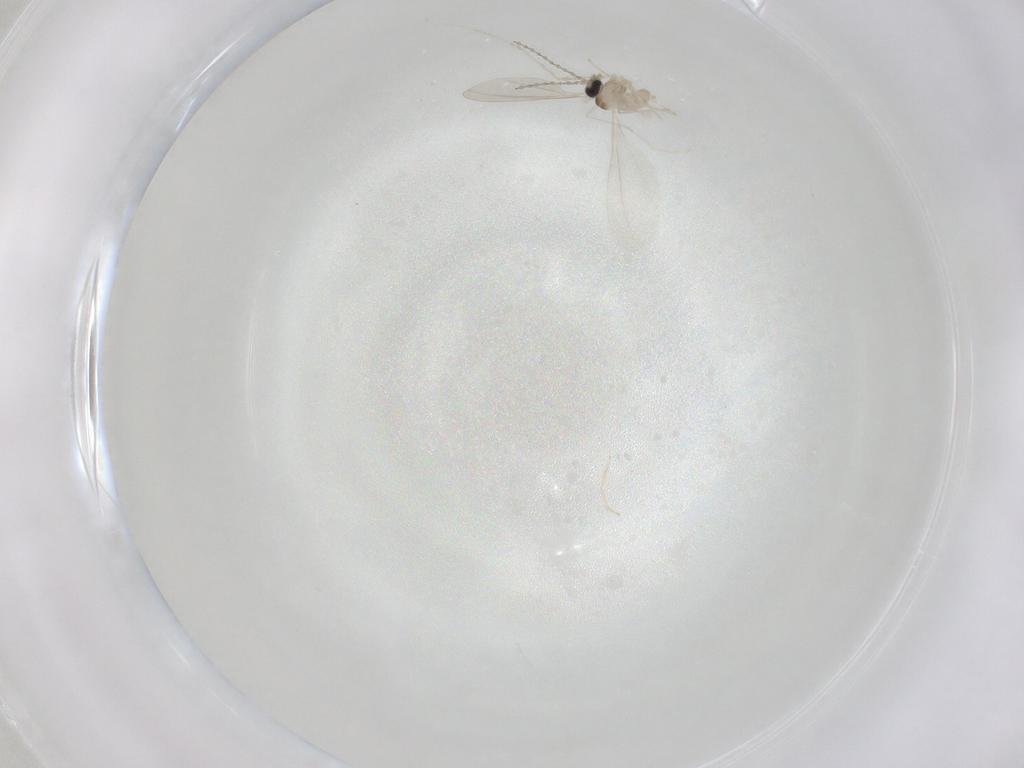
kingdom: Animalia
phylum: Arthropoda
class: Insecta
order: Diptera
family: Cecidomyiidae
